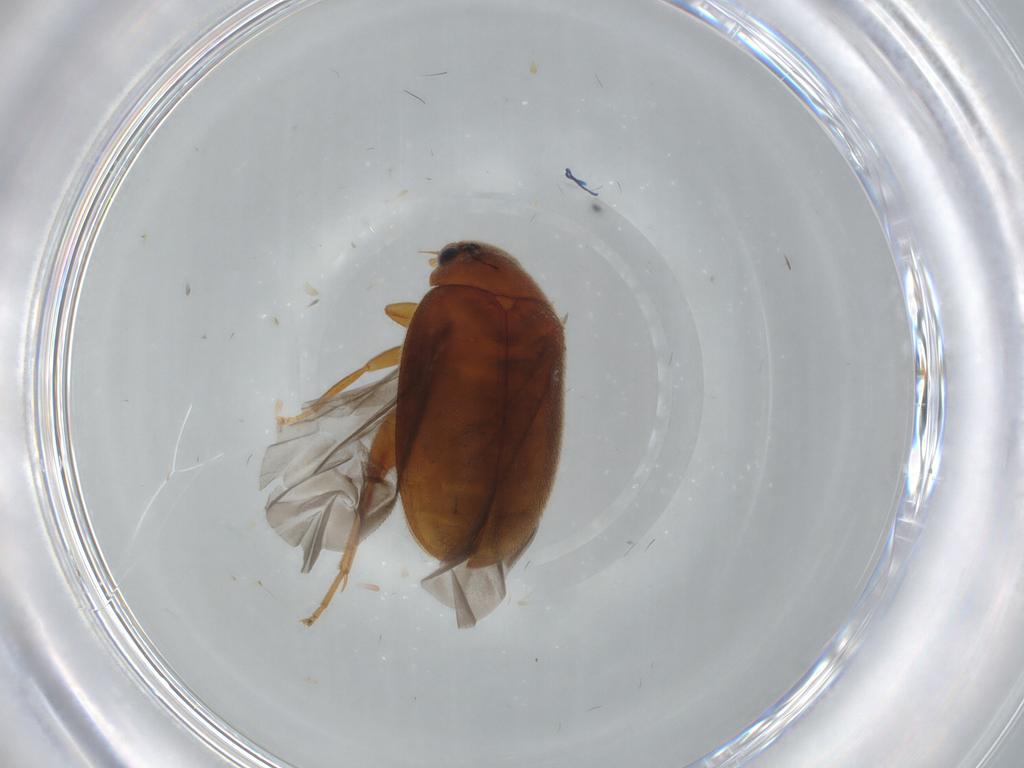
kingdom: Animalia
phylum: Arthropoda
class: Insecta
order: Coleoptera
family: Scirtidae
